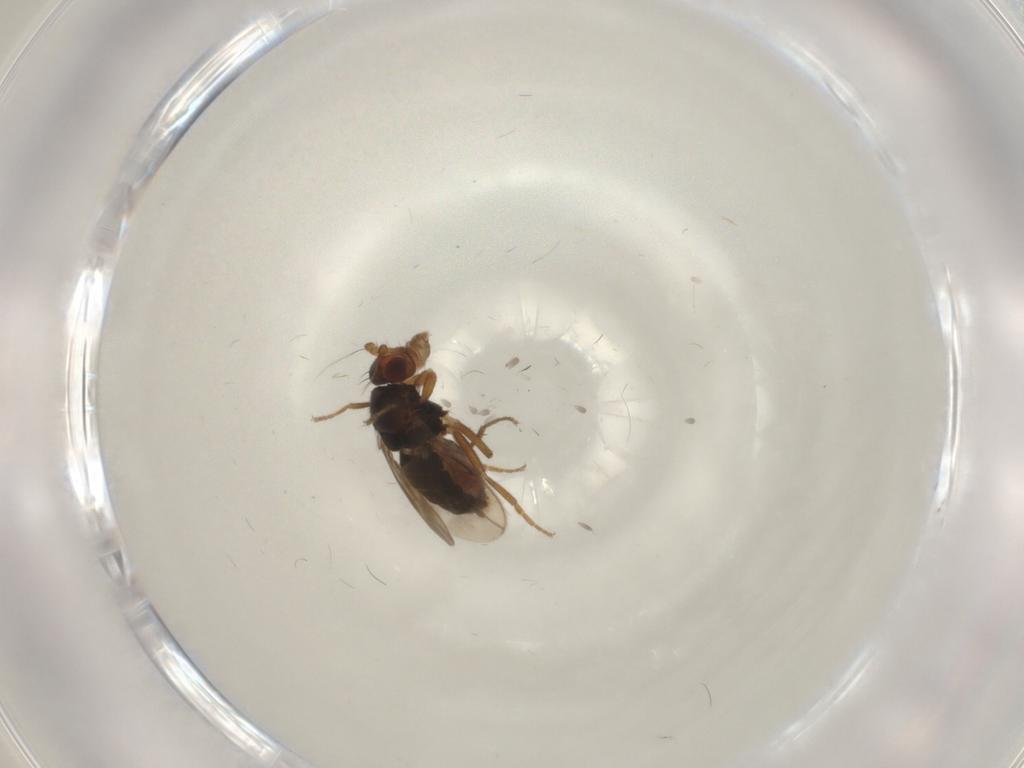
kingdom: Animalia
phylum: Arthropoda
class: Insecta
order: Diptera
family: Sphaeroceridae
